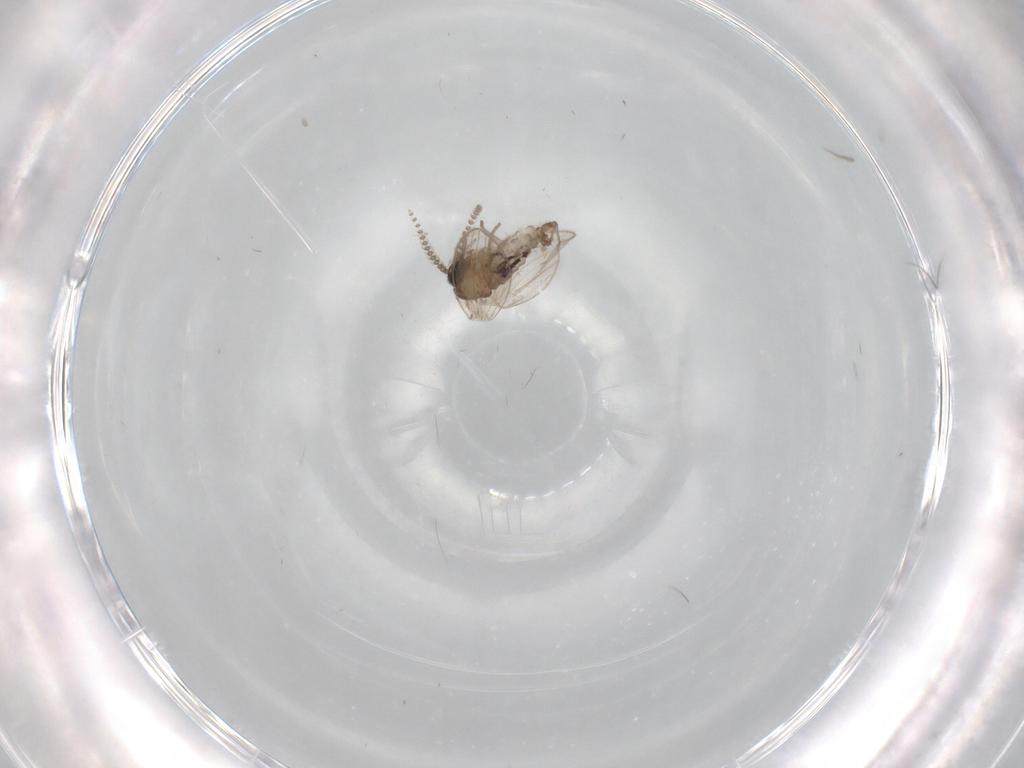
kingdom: Animalia
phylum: Arthropoda
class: Insecta
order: Diptera
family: Psychodidae
